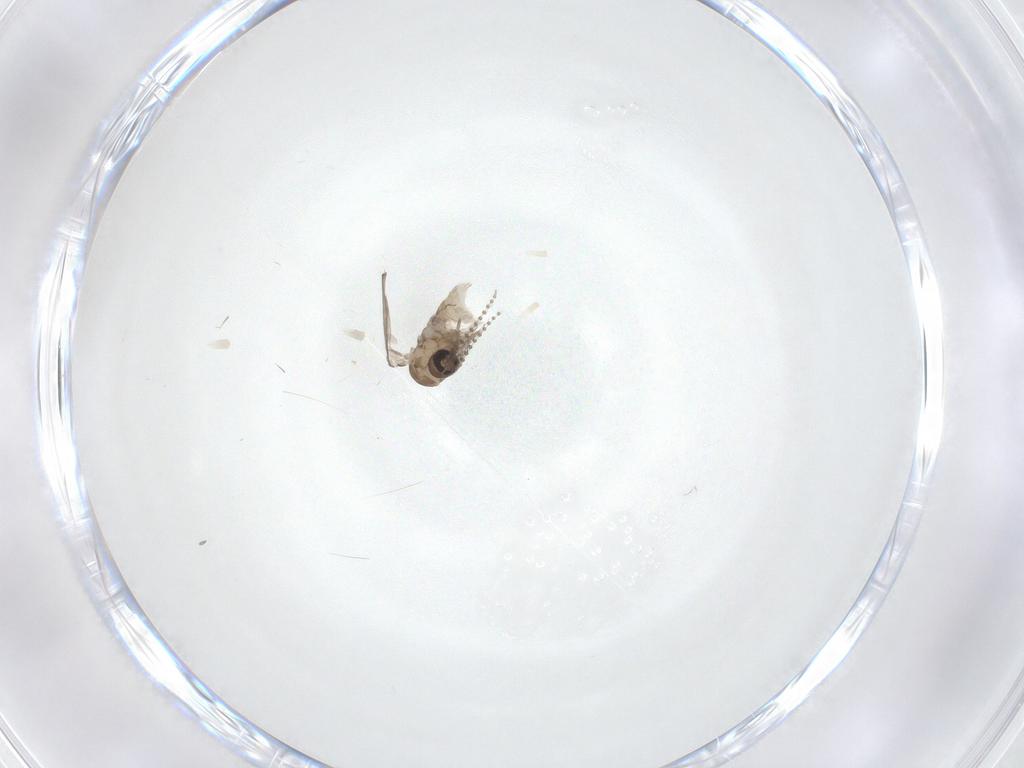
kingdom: Animalia
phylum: Arthropoda
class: Insecta
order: Diptera
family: Psychodidae
